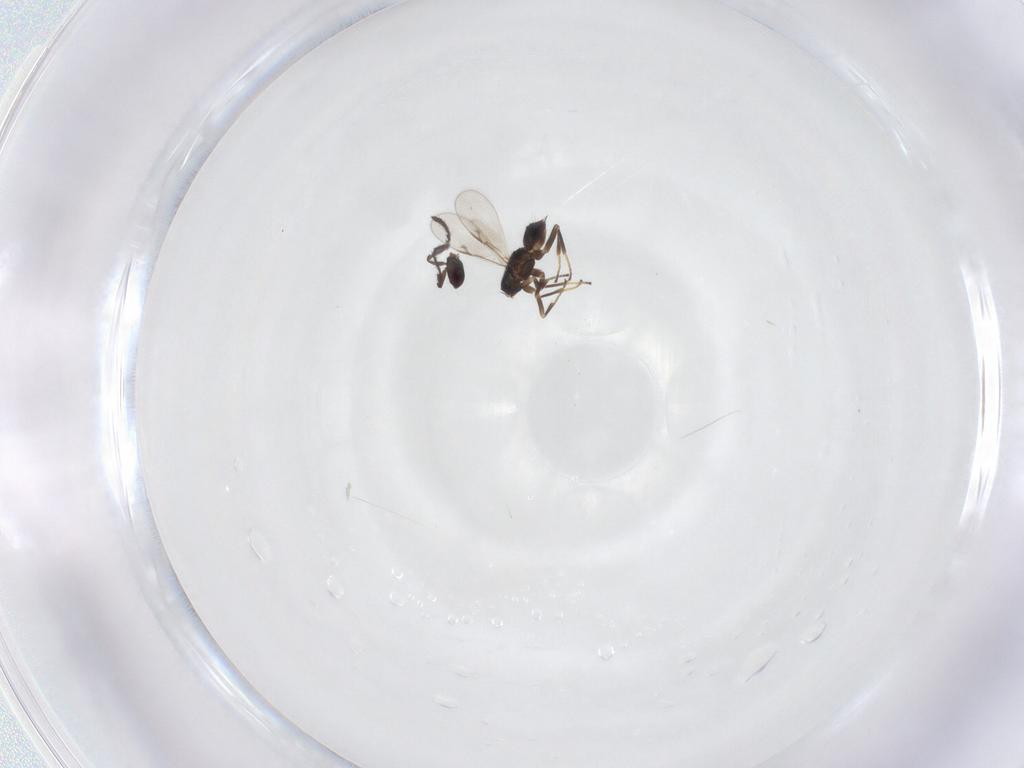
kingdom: Animalia
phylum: Arthropoda
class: Insecta
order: Hymenoptera
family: Encyrtidae
